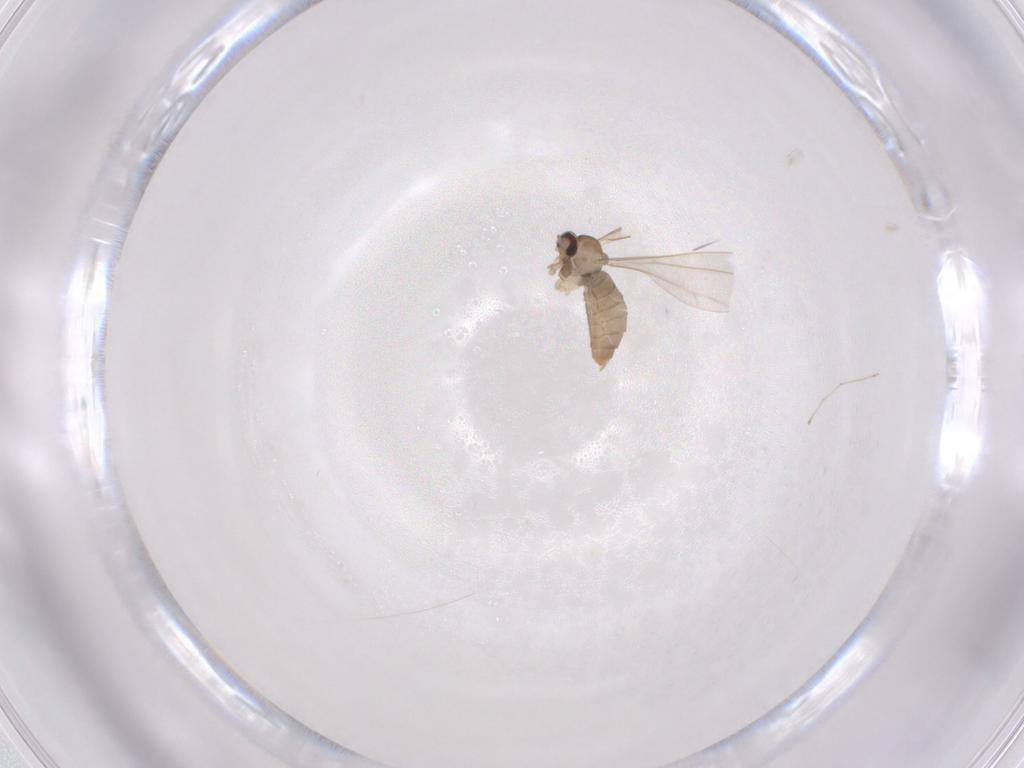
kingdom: Animalia
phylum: Arthropoda
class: Insecta
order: Diptera
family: Cecidomyiidae
